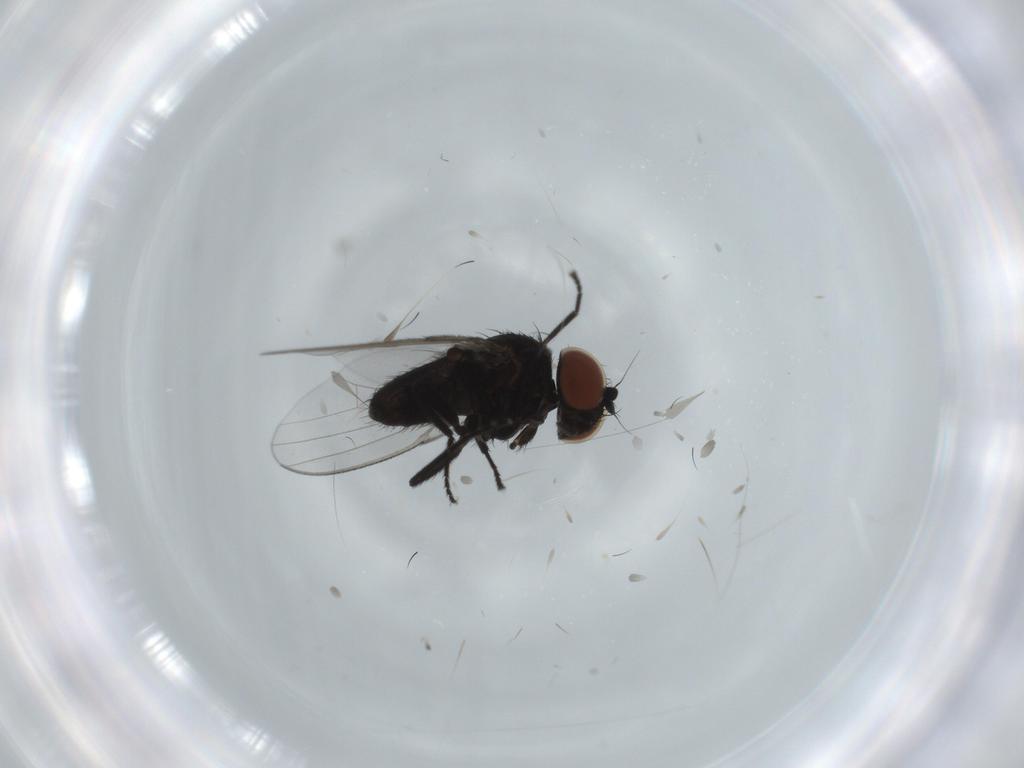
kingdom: Animalia
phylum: Arthropoda
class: Insecta
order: Diptera
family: Milichiidae
